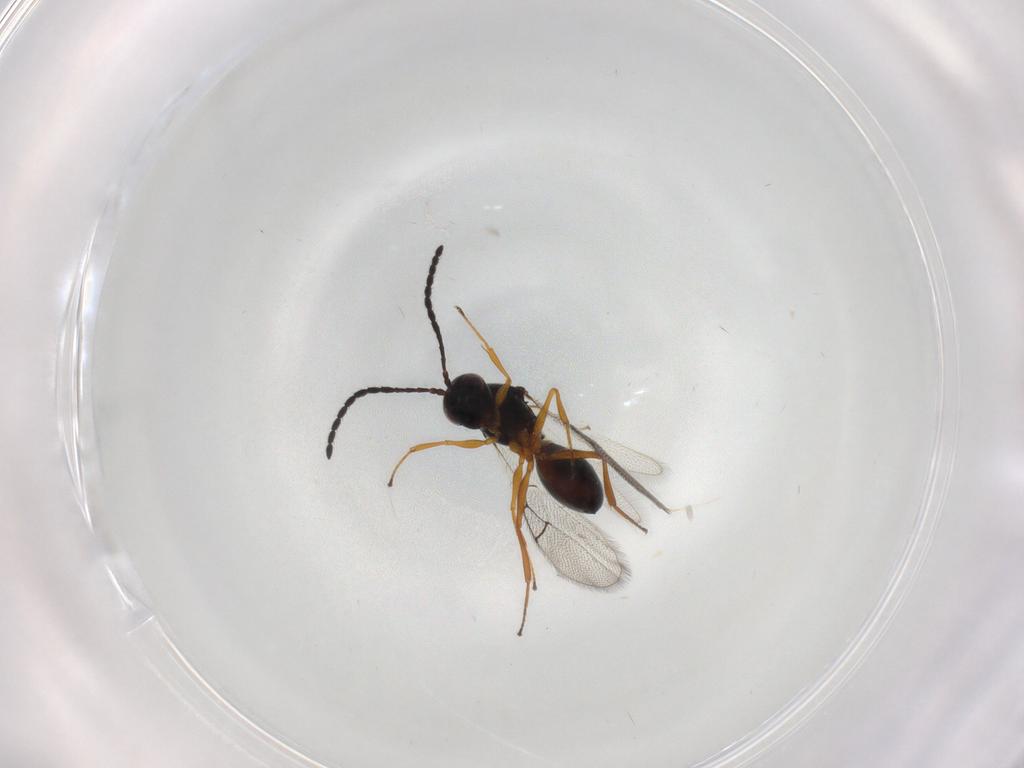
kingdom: Animalia
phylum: Arthropoda
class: Insecta
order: Hymenoptera
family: Figitidae
